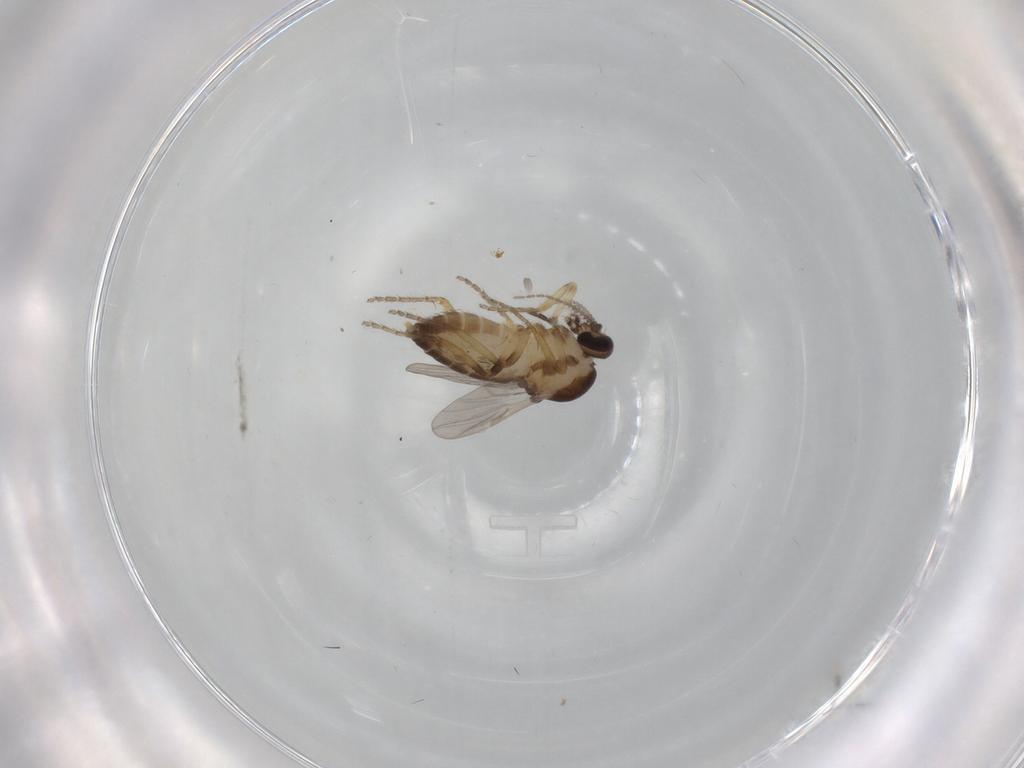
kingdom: Animalia
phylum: Arthropoda
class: Insecta
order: Diptera
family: Ceratopogonidae
